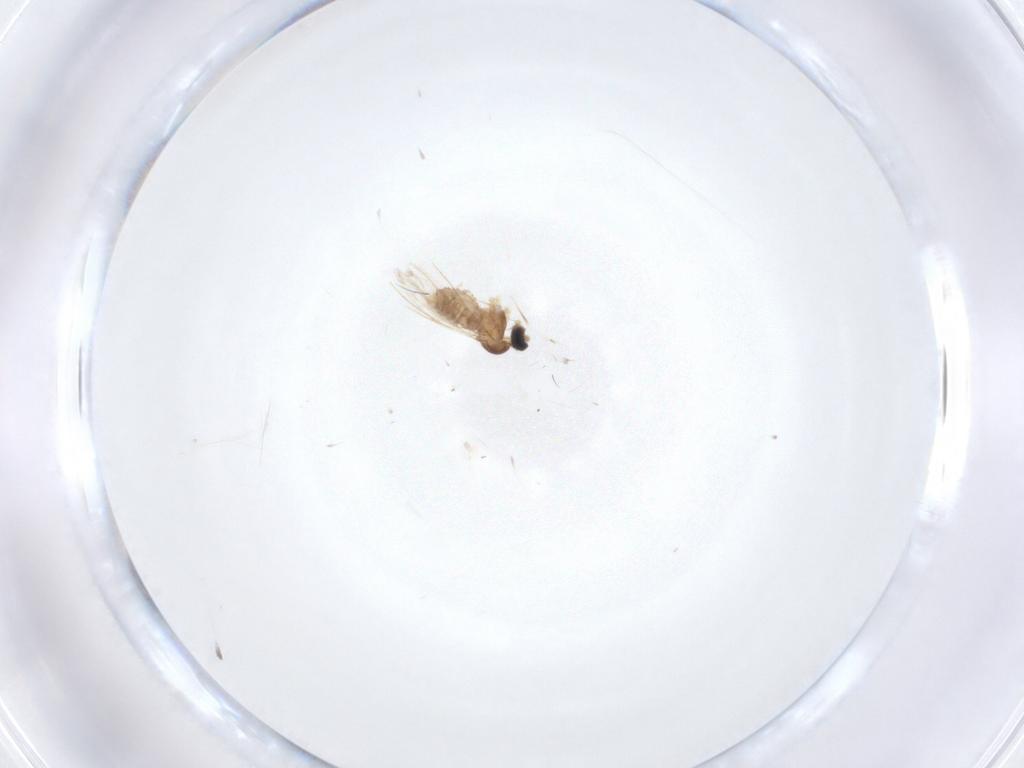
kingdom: Animalia
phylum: Arthropoda
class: Insecta
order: Diptera
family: Cecidomyiidae
